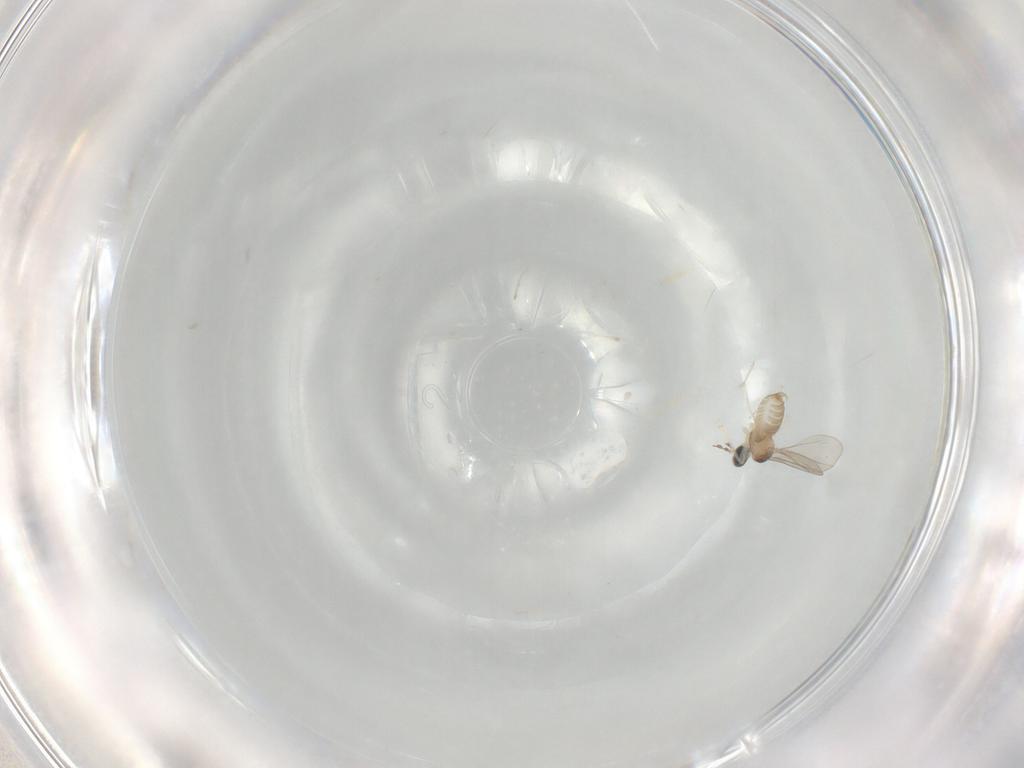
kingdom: Animalia
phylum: Arthropoda
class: Insecta
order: Diptera
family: Cecidomyiidae
